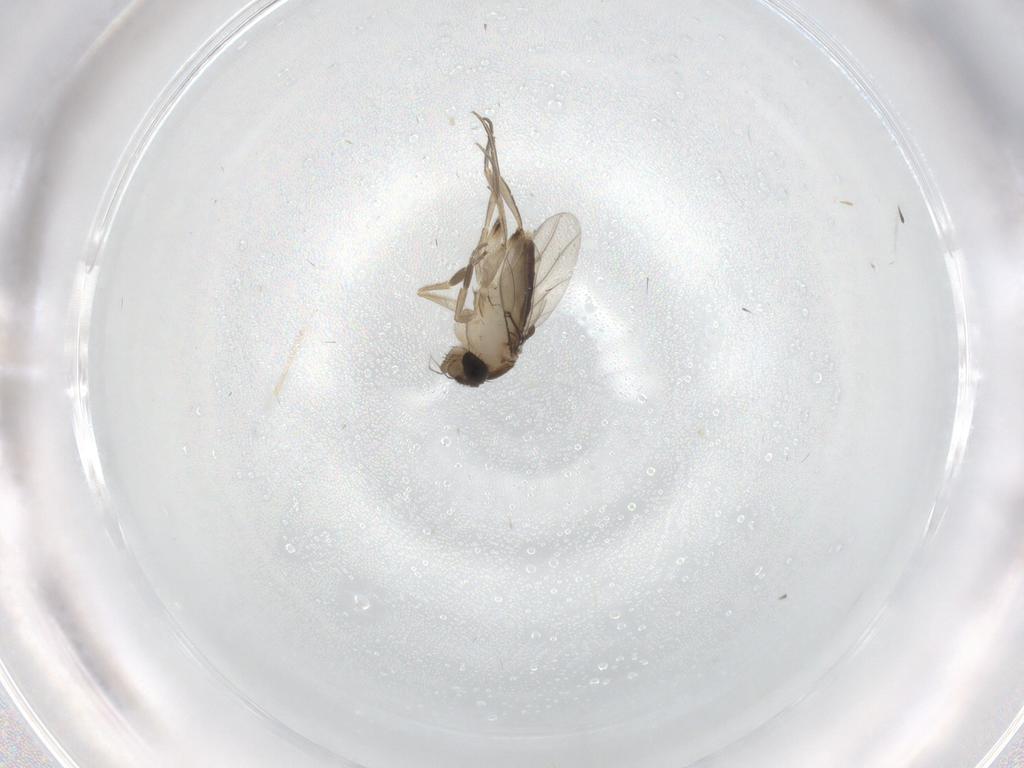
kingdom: Animalia
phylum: Arthropoda
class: Insecta
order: Diptera
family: Phoridae
